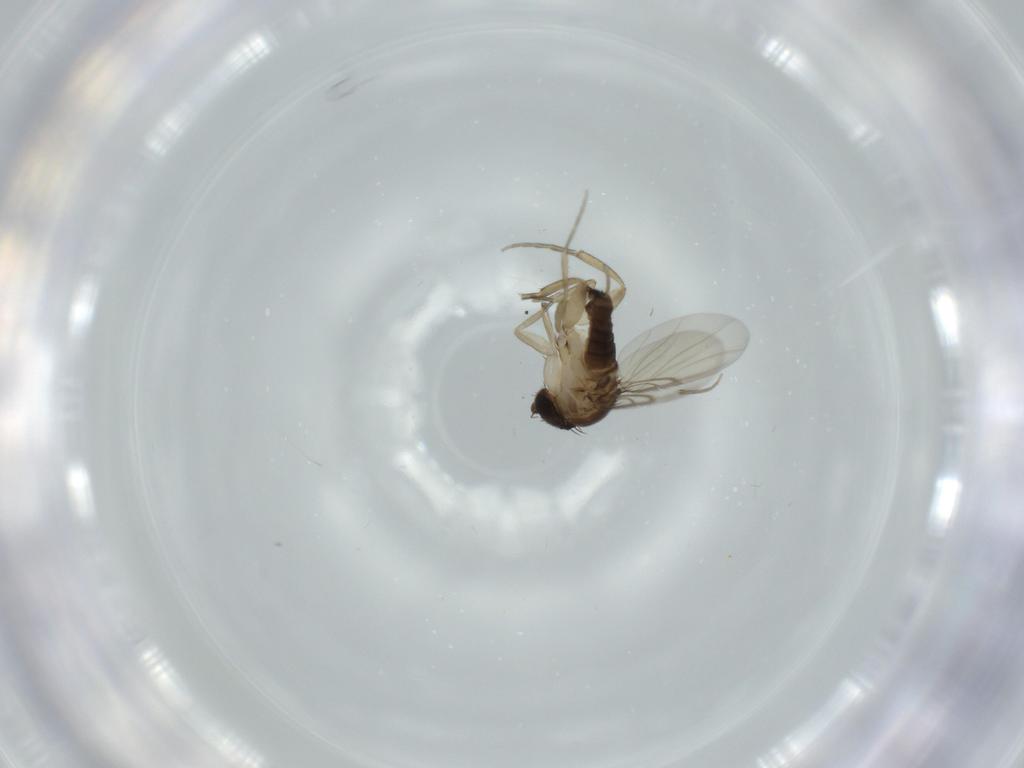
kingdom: Animalia
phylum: Arthropoda
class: Insecta
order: Diptera
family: Phoridae
